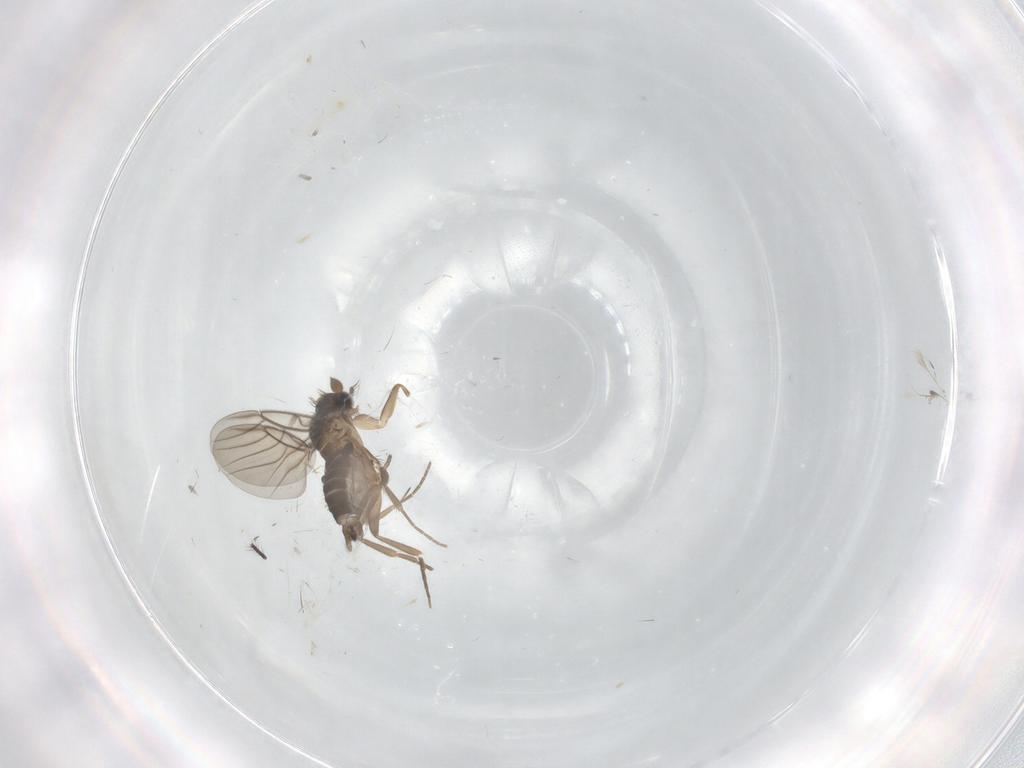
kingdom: Animalia
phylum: Arthropoda
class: Insecta
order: Diptera
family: Phoridae
